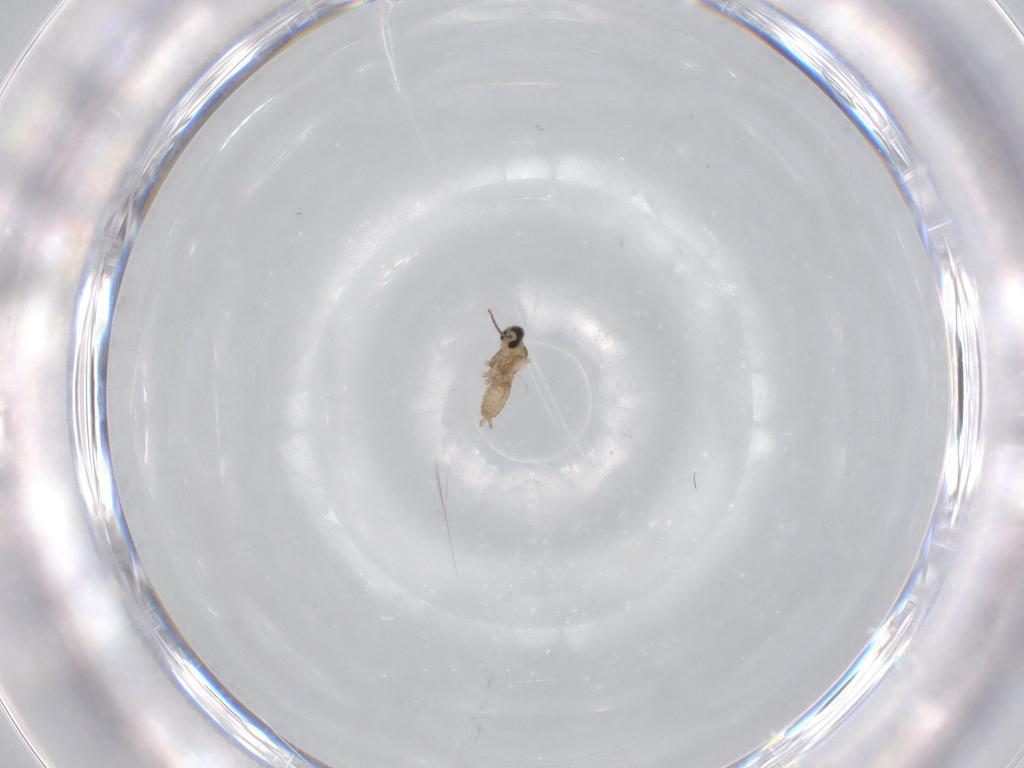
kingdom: Animalia
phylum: Arthropoda
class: Insecta
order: Diptera
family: Cecidomyiidae
